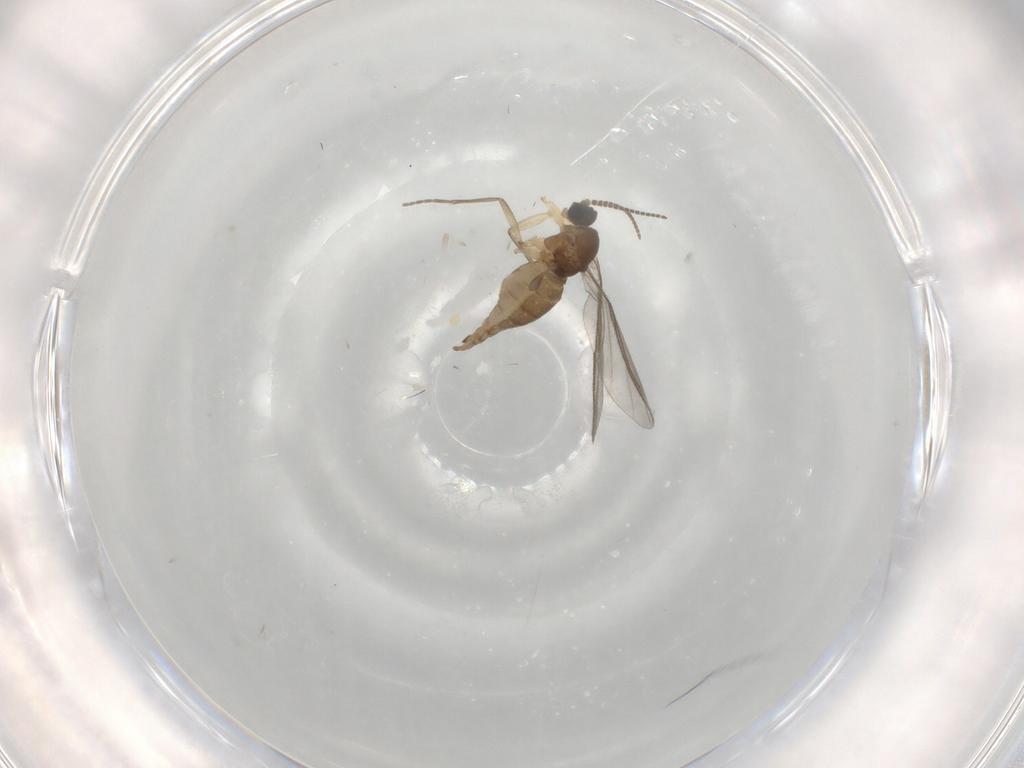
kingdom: Animalia
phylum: Arthropoda
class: Insecta
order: Diptera
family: Sciaridae
